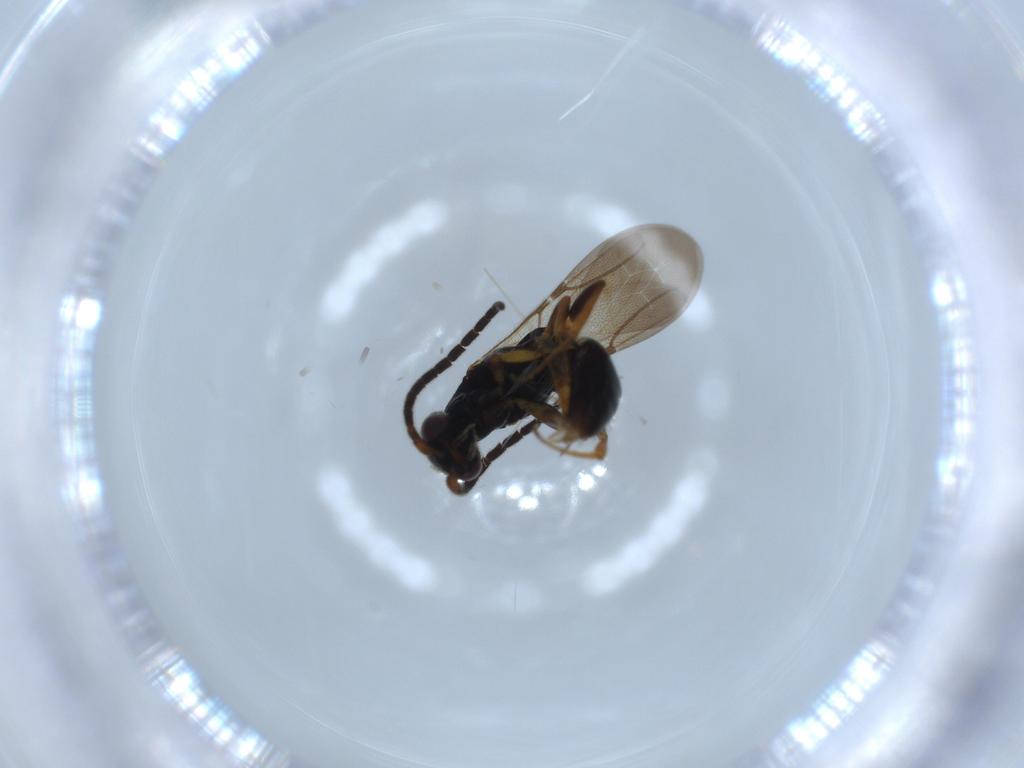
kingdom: Animalia
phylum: Arthropoda
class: Insecta
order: Hymenoptera
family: Bethylidae
